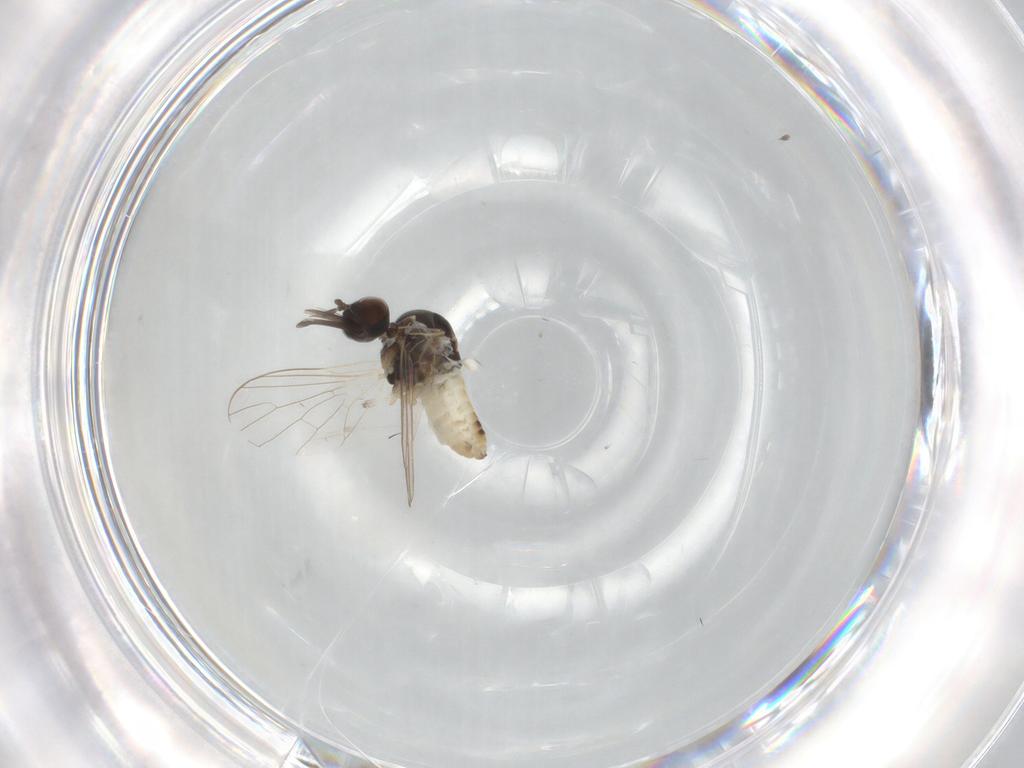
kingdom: Animalia
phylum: Arthropoda
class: Insecta
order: Diptera
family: Bombyliidae
